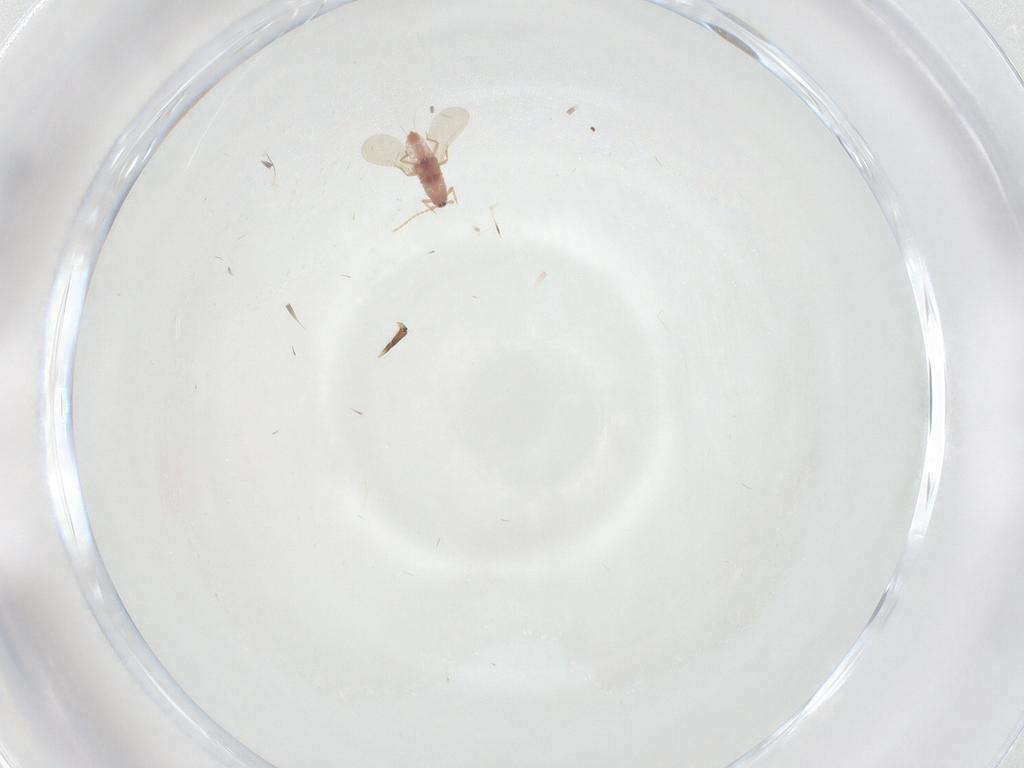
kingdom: Animalia
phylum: Arthropoda
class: Insecta
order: Hemiptera
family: Cicadellidae
